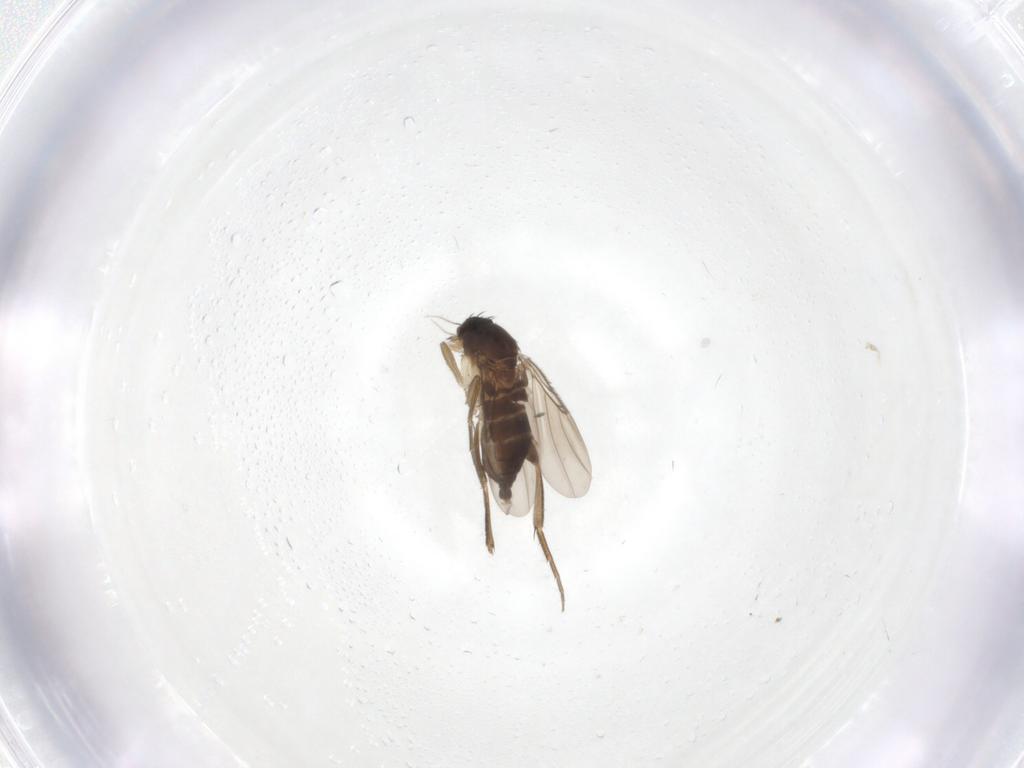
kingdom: Animalia
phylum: Arthropoda
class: Insecta
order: Diptera
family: Phoridae
